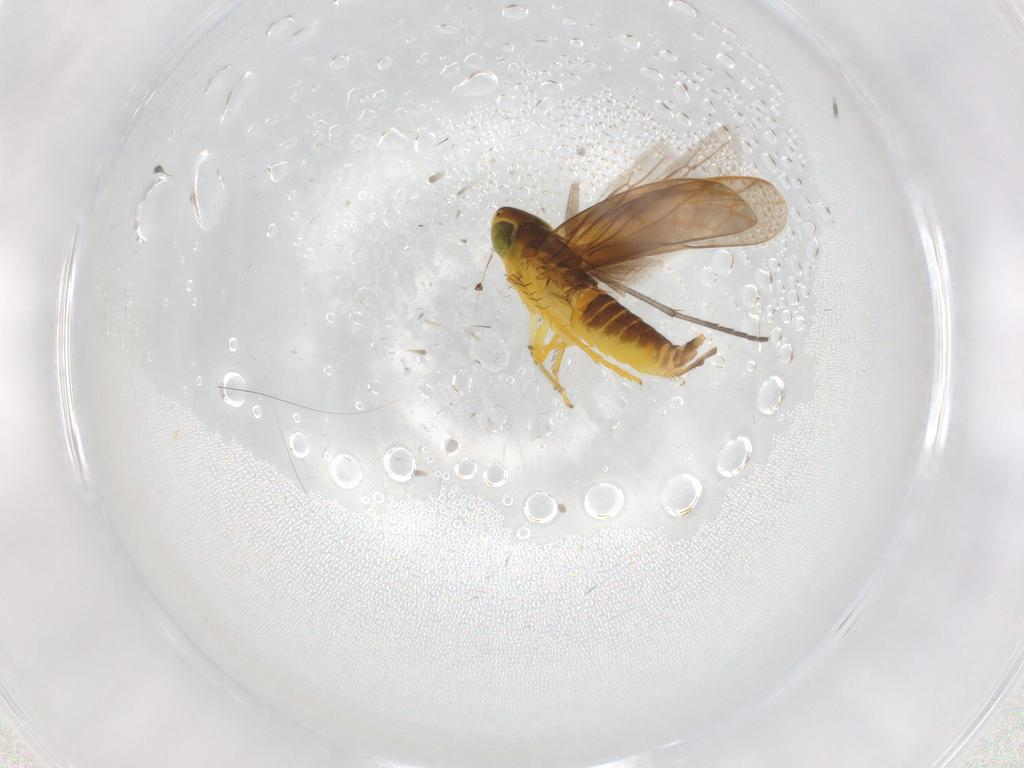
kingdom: Animalia
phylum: Arthropoda
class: Insecta
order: Hemiptera
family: Cicadellidae
